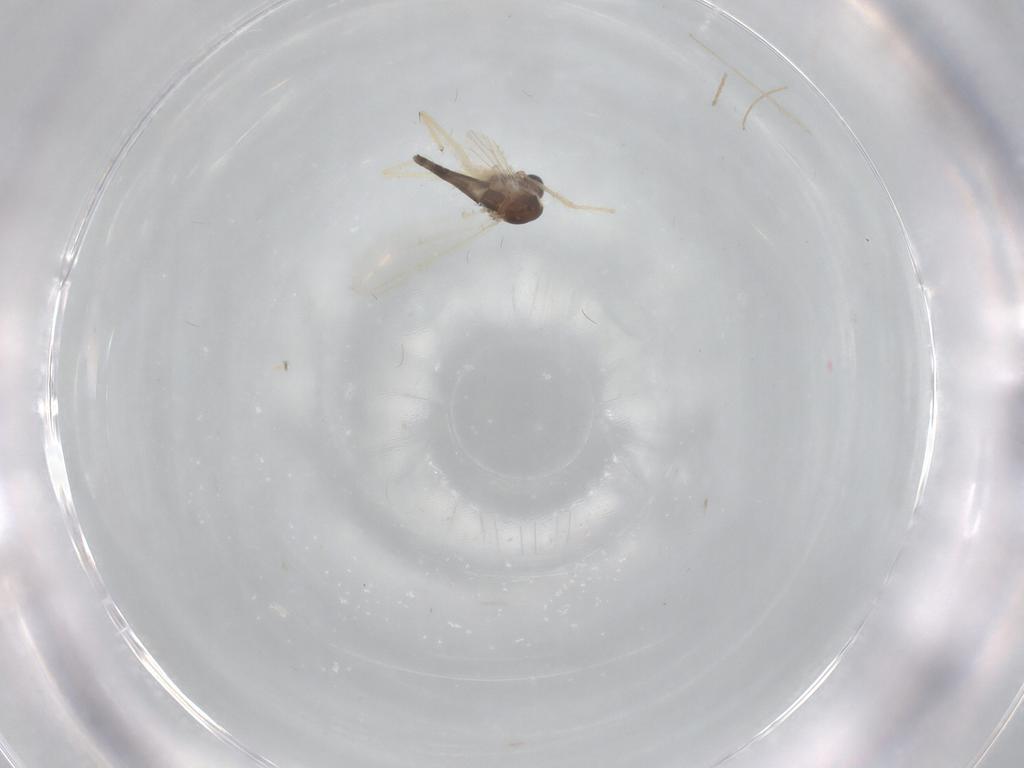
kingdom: Animalia
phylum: Arthropoda
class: Insecta
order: Diptera
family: Chironomidae
